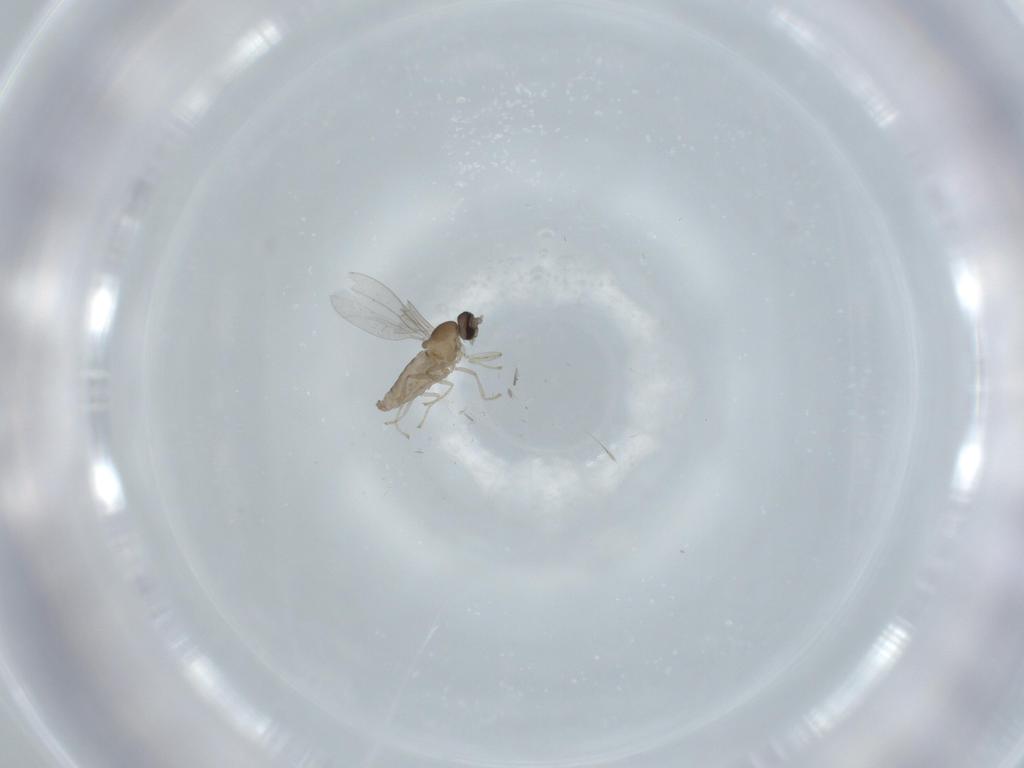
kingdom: Animalia
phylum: Arthropoda
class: Insecta
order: Diptera
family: Cecidomyiidae
